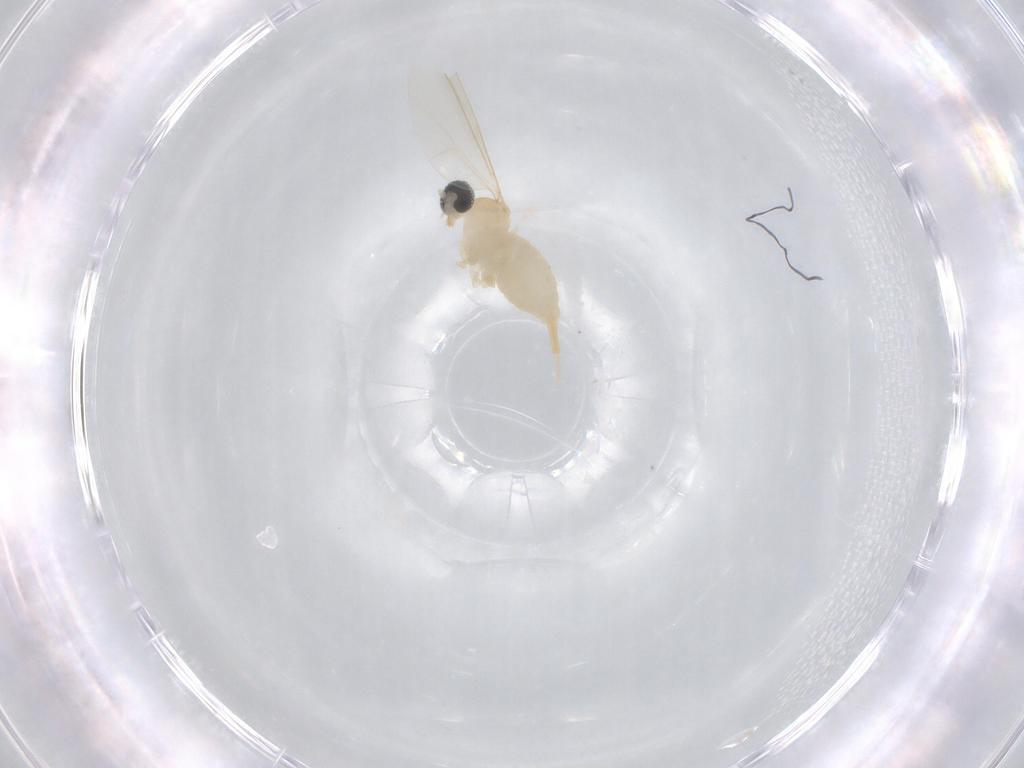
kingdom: Animalia
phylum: Arthropoda
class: Insecta
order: Diptera
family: Cecidomyiidae
